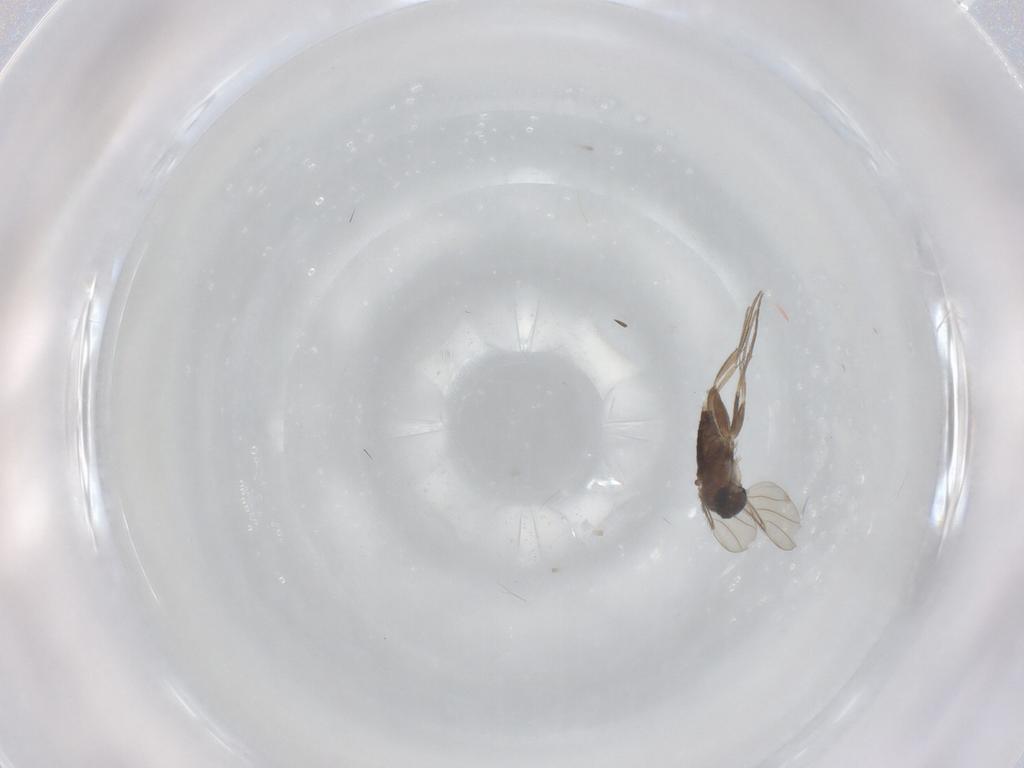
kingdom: Animalia
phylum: Arthropoda
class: Insecta
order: Diptera
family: Phoridae
